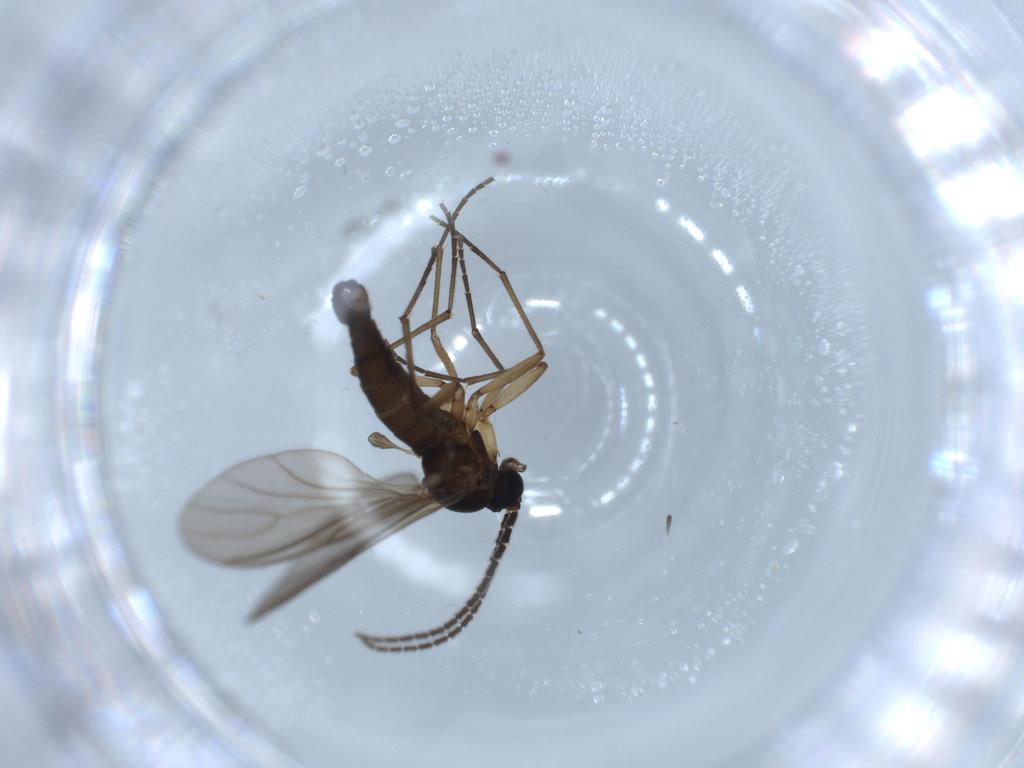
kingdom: Animalia
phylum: Arthropoda
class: Insecta
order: Diptera
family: Sciaridae
